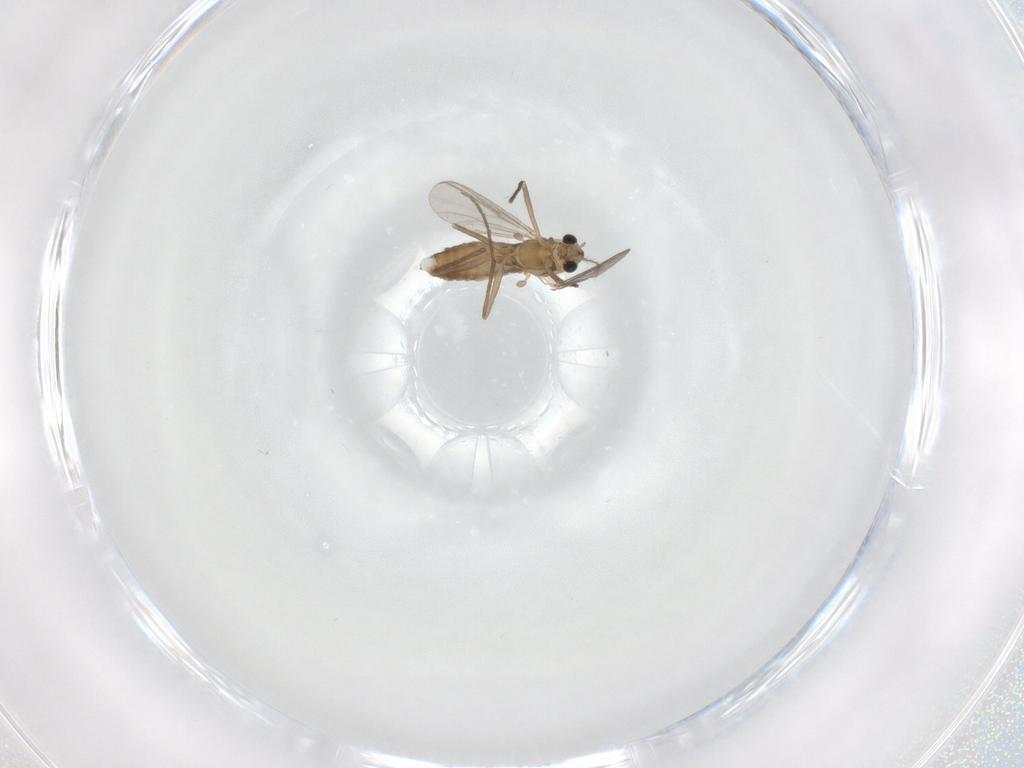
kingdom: Animalia
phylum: Arthropoda
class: Insecta
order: Diptera
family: Chironomidae
